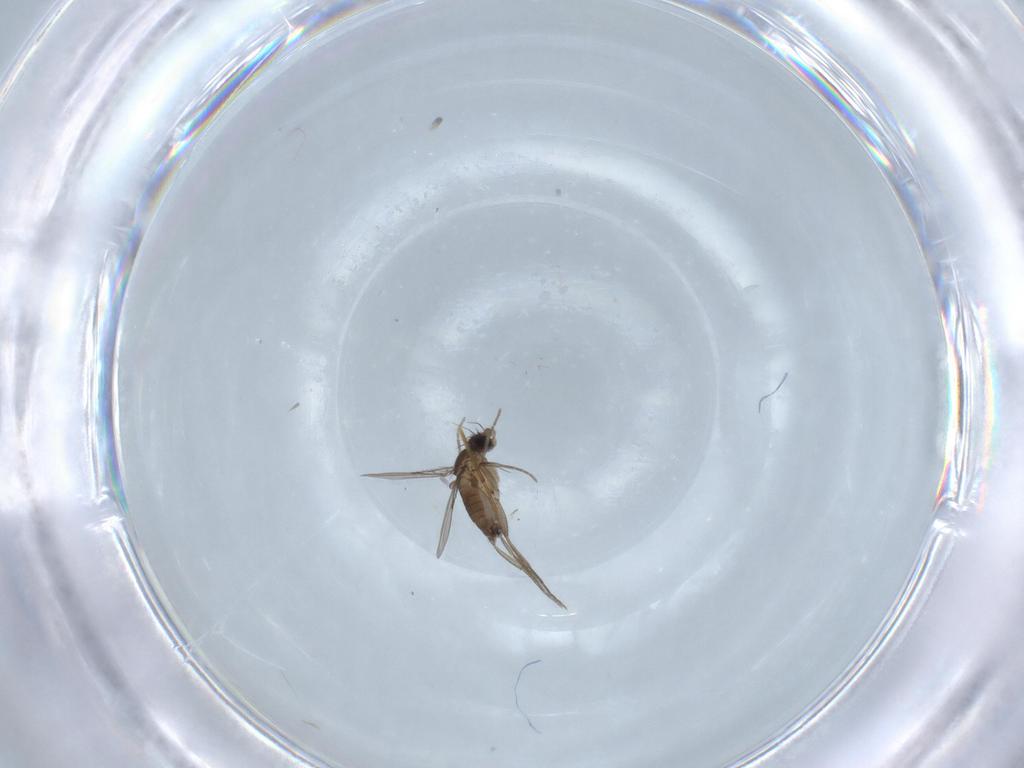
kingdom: Animalia
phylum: Arthropoda
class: Insecta
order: Diptera
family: Phoridae
